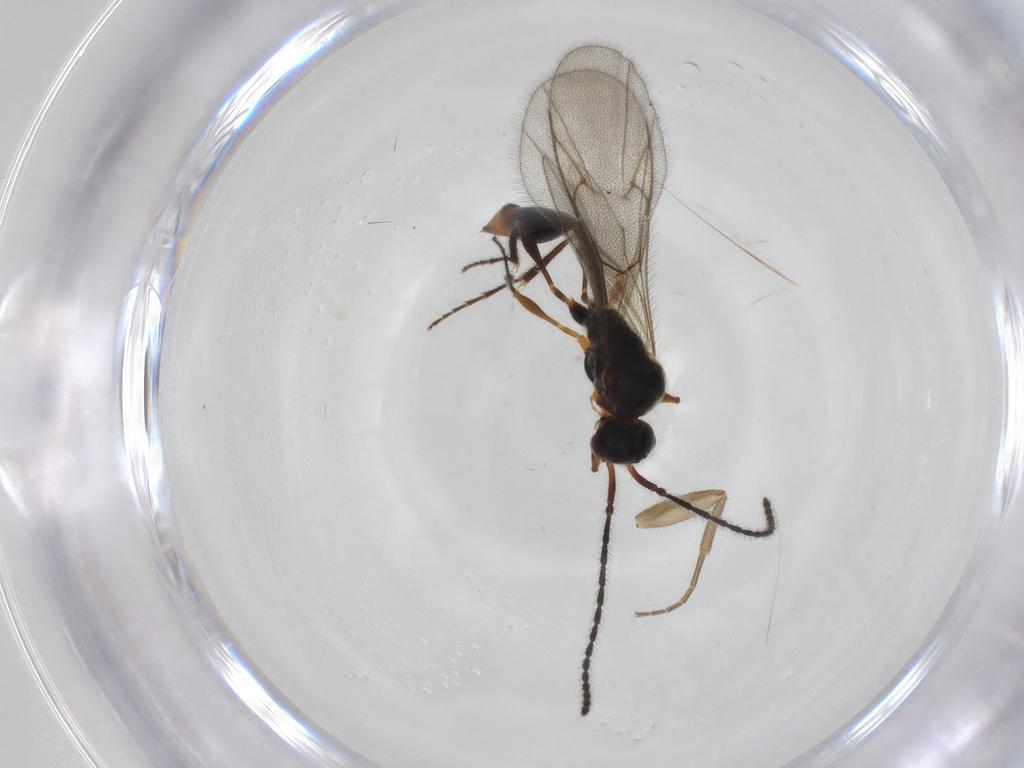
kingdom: Animalia
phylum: Arthropoda
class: Insecta
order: Hymenoptera
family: Diapriidae
